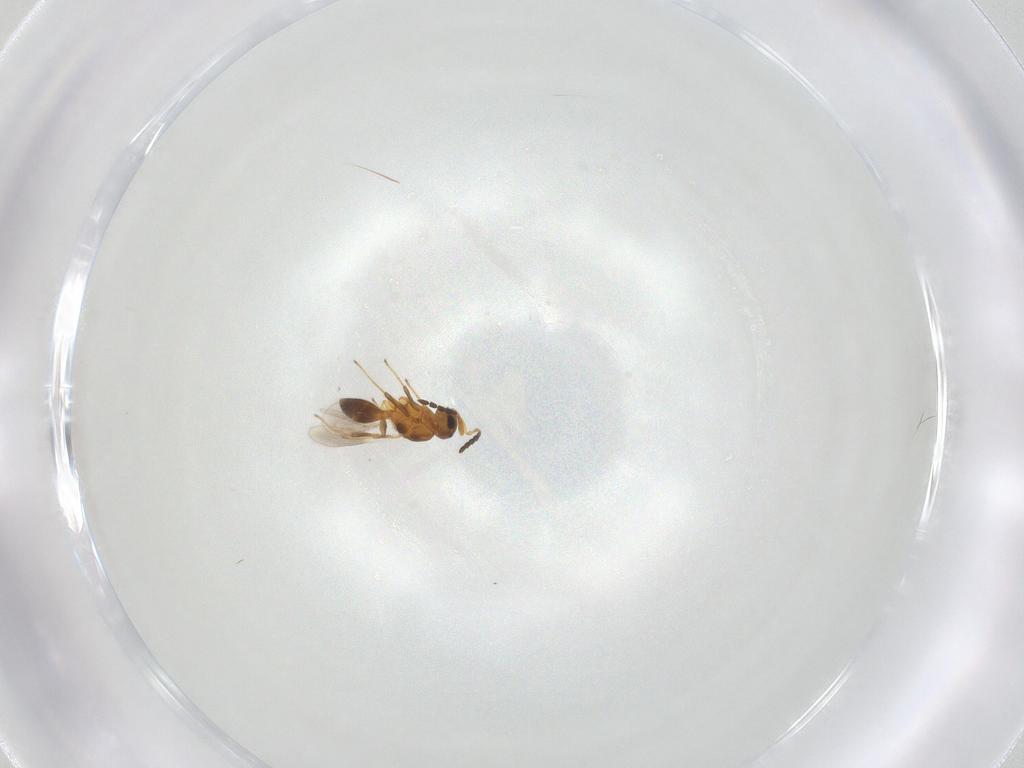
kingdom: Animalia
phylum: Arthropoda
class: Insecta
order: Hymenoptera
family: Platygastridae
